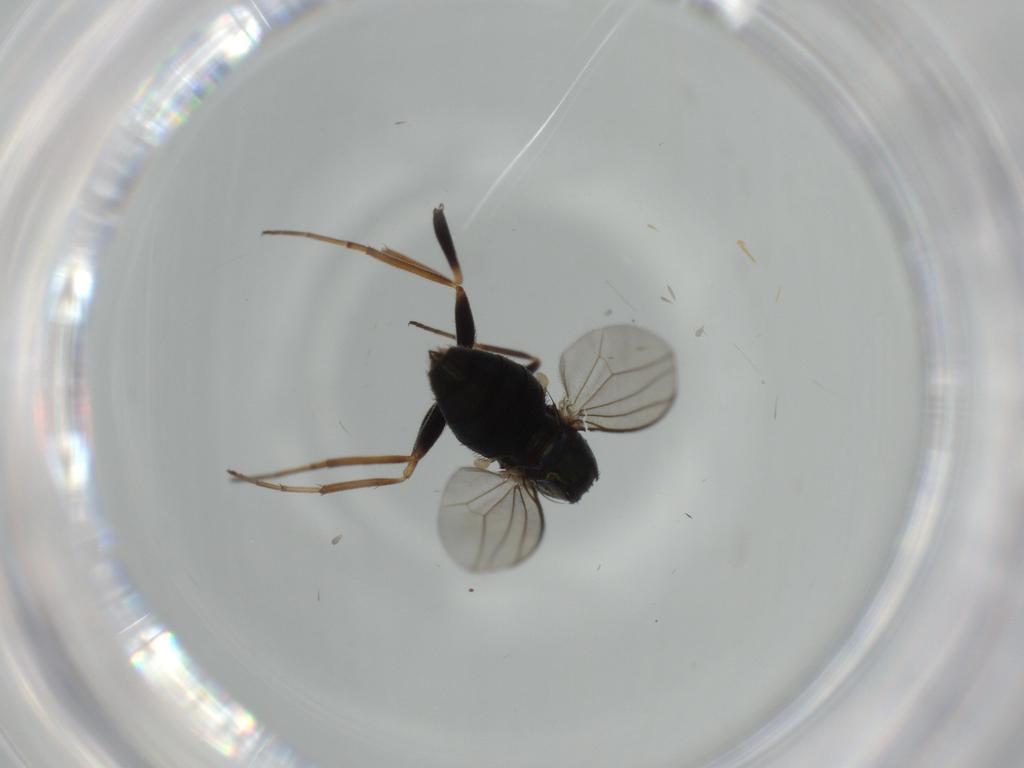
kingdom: Animalia
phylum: Arthropoda
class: Insecta
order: Diptera
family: Dolichopodidae
